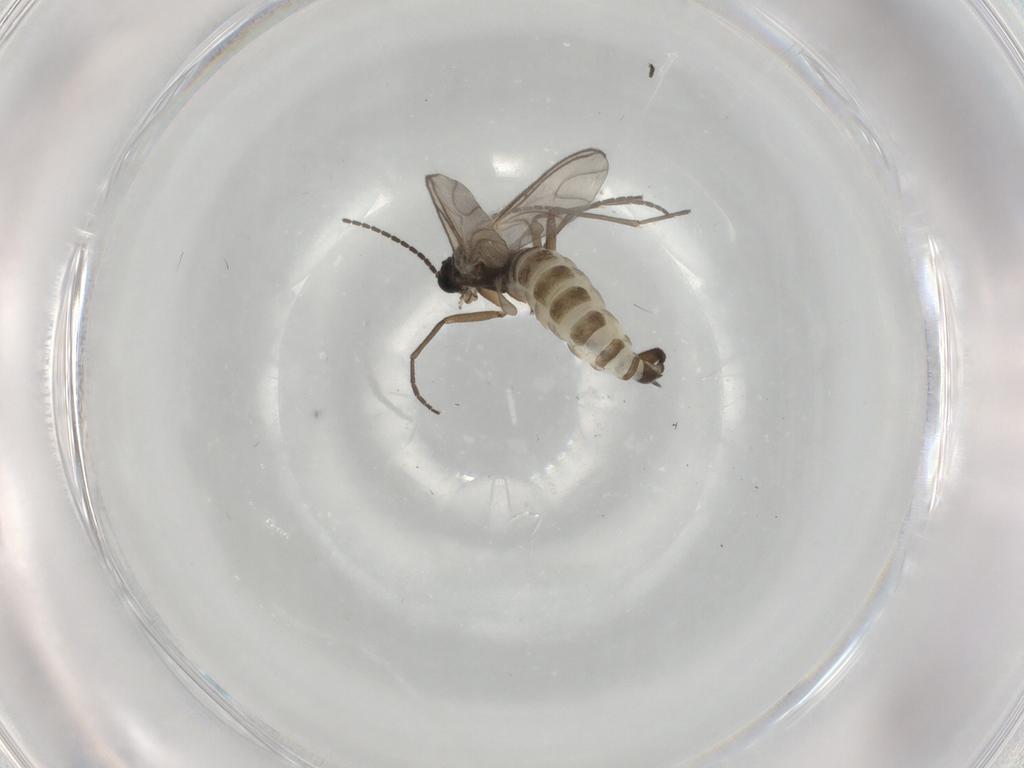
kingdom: Animalia
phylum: Arthropoda
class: Insecta
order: Diptera
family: Sciaridae
